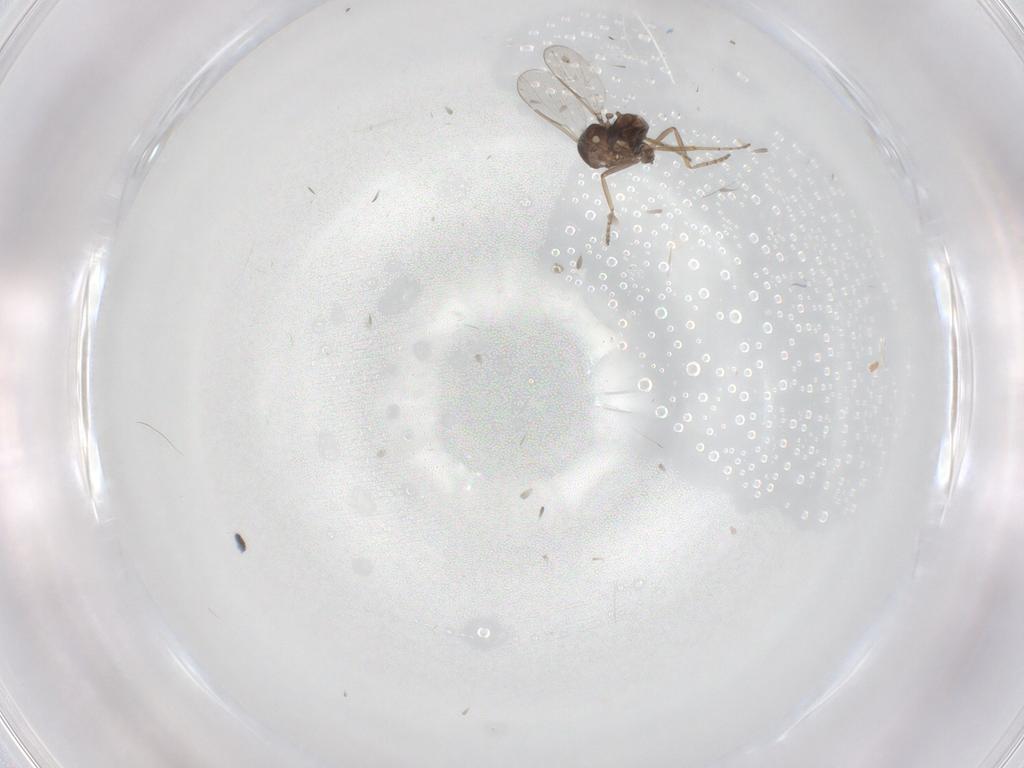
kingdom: Animalia
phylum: Arthropoda
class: Insecta
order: Diptera
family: Ceratopogonidae
